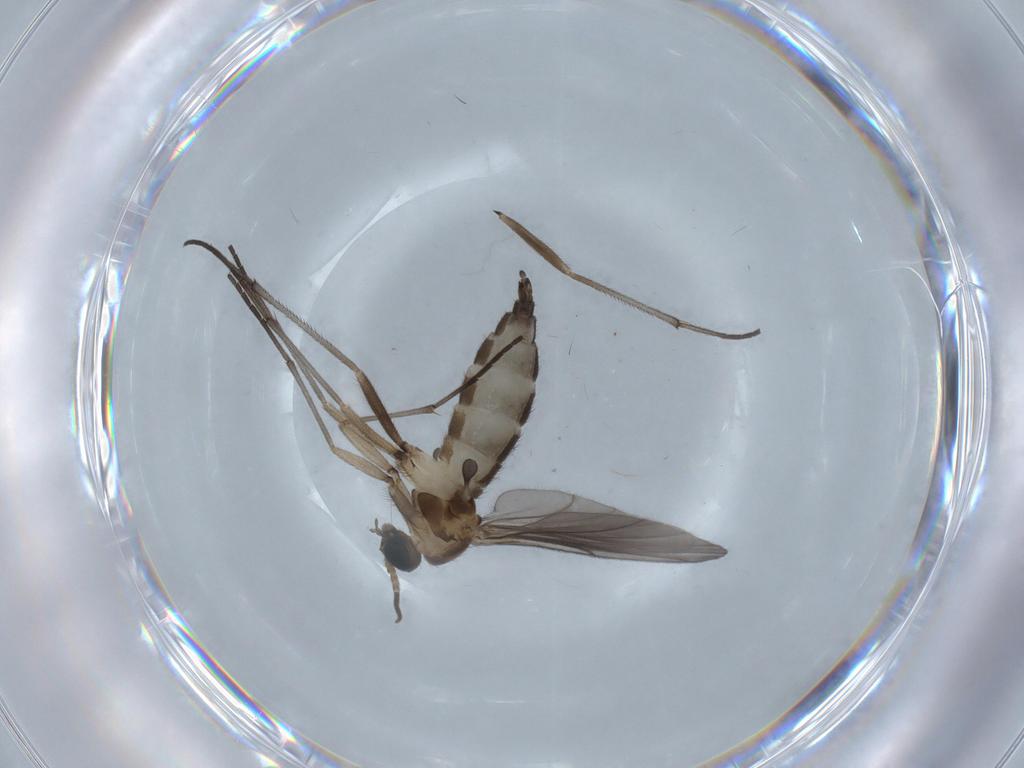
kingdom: Animalia
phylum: Arthropoda
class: Insecta
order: Diptera
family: Sciaridae
